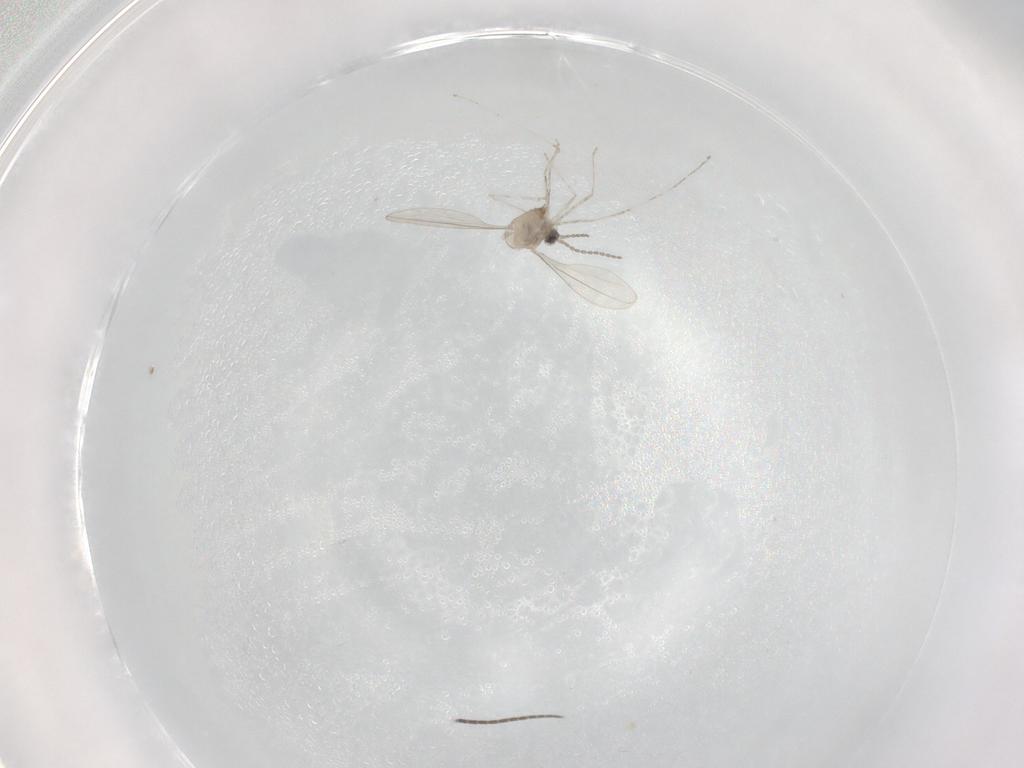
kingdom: Animalia
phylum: Arthropoda
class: Insecta
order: Diptera
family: Cecidomyiidae
